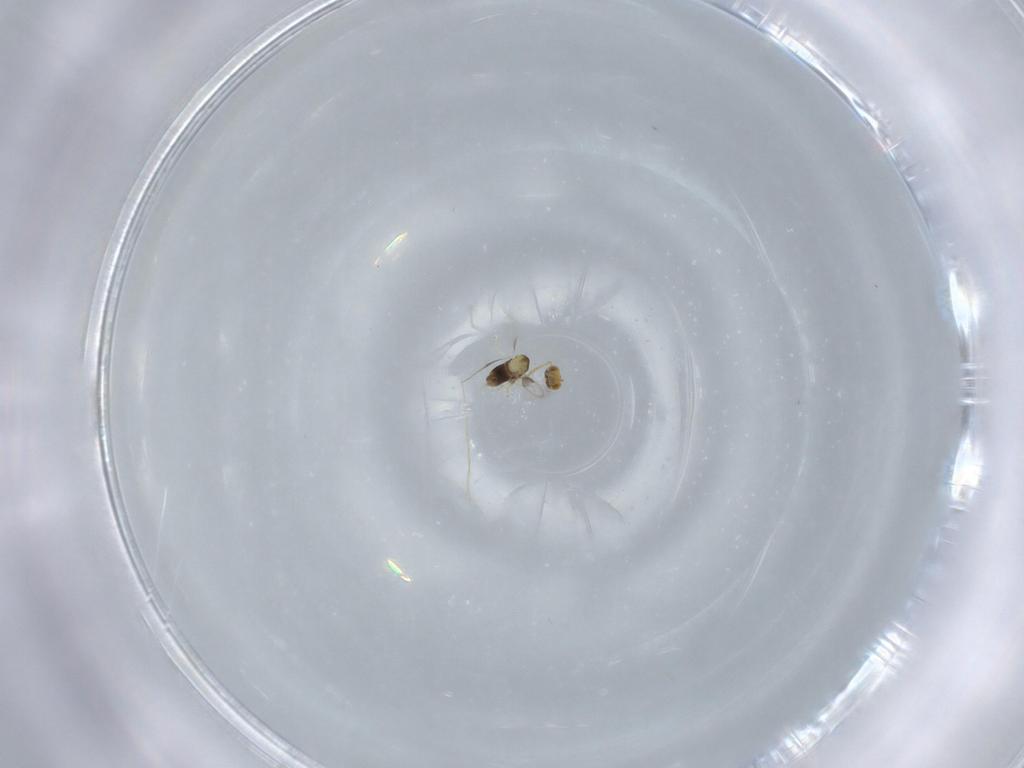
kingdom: Animalia
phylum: Arthropoda
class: Insecta
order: Hymenoptera
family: Aphelinidae
